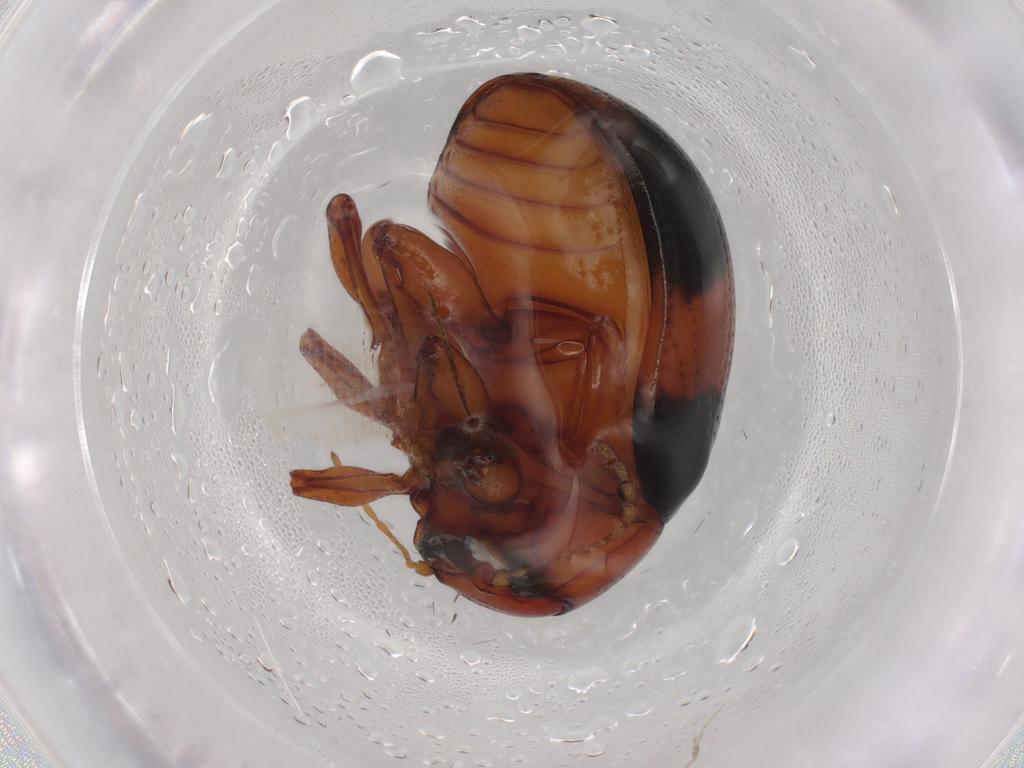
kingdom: Animalia
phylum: Arthropoda
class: Insecta
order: Coleoptera
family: Chrysomelidae
